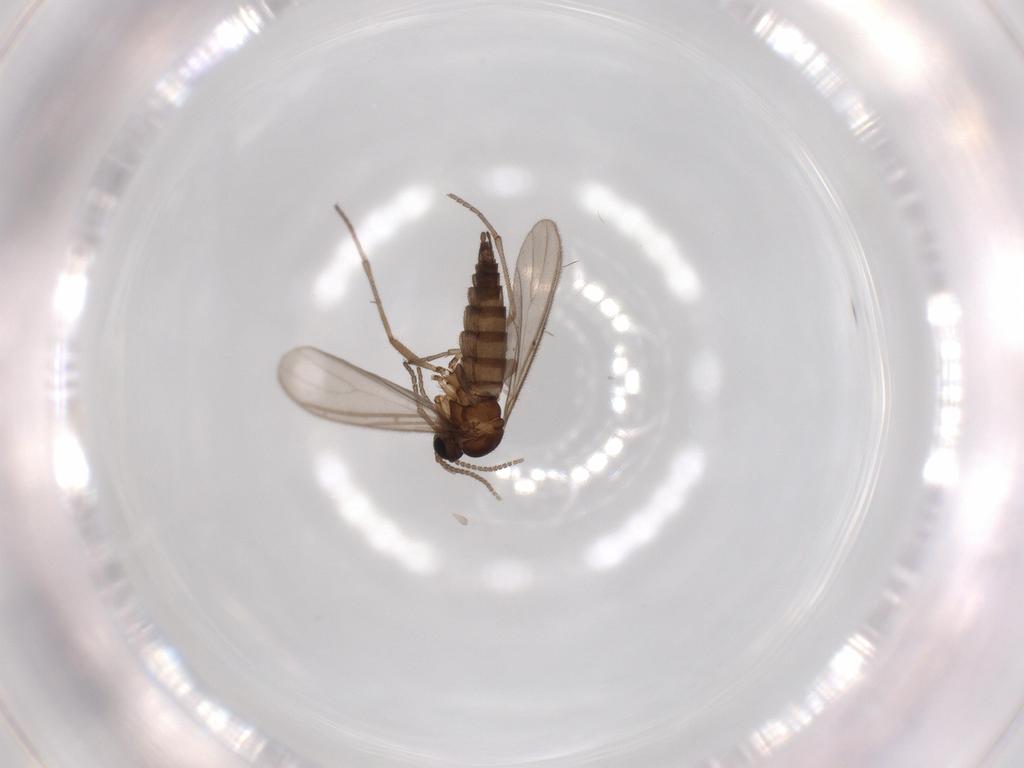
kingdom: Animalia
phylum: Arthropoda
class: Insecta
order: Diptera
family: Sciaridae
